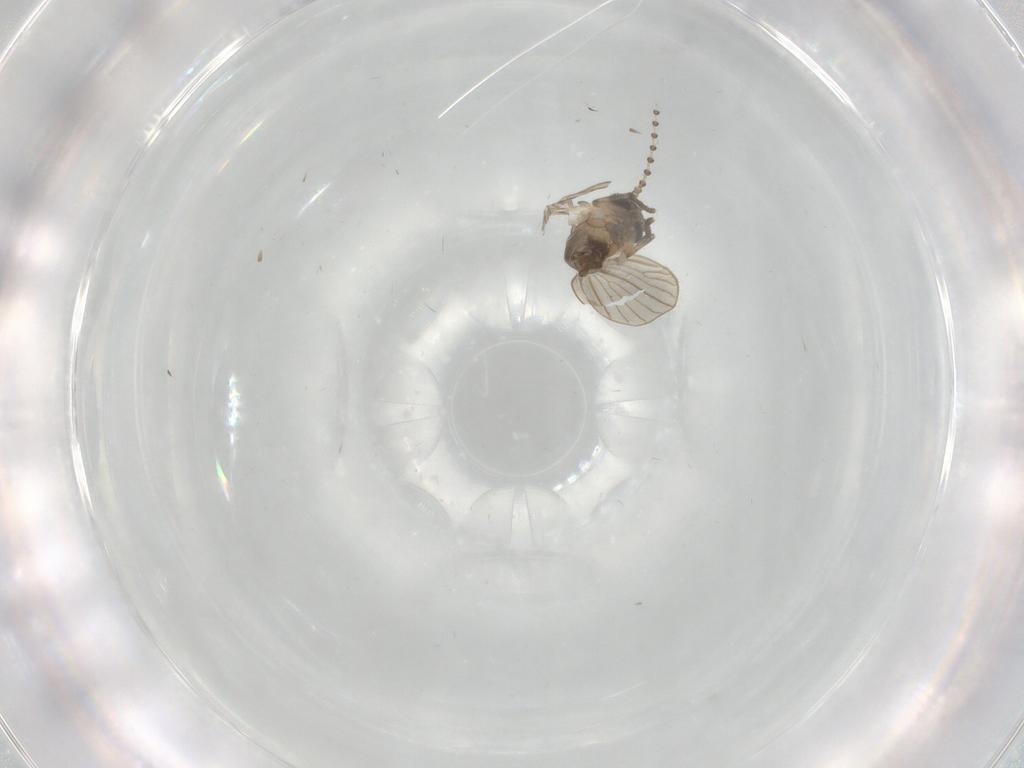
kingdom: Animalia
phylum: Arthropoda
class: Insecta
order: Diptera
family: Psychodidae
